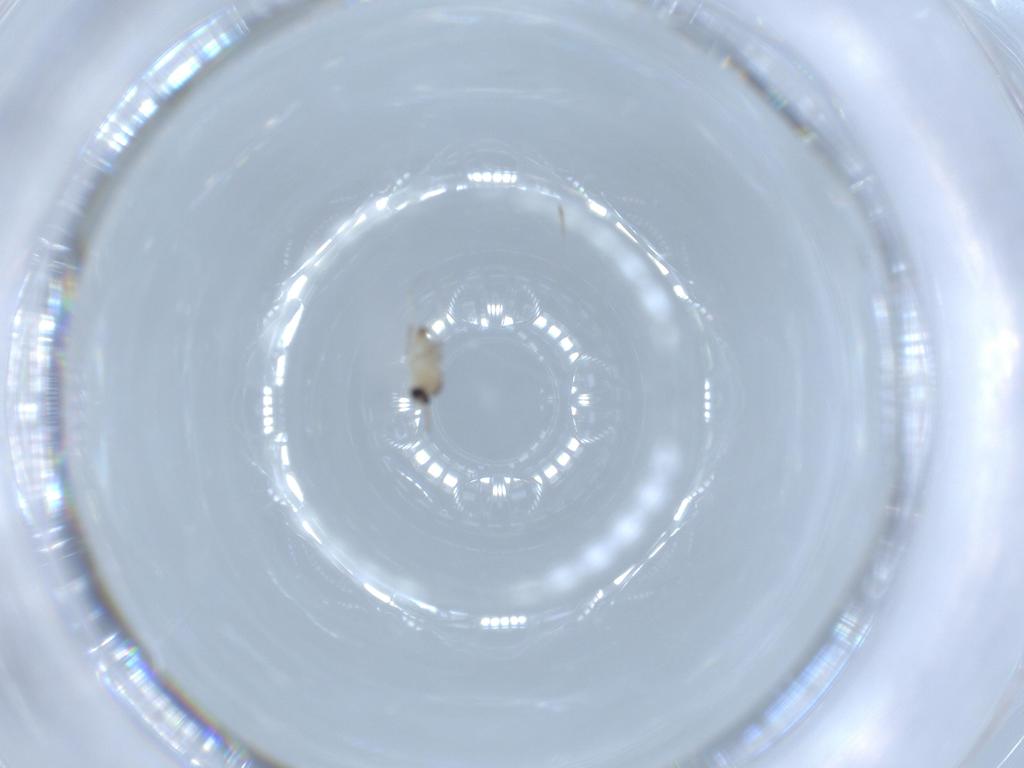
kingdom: Animalia
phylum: Arthropoda
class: Insecta
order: Diptera
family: Cecidomyiidae
